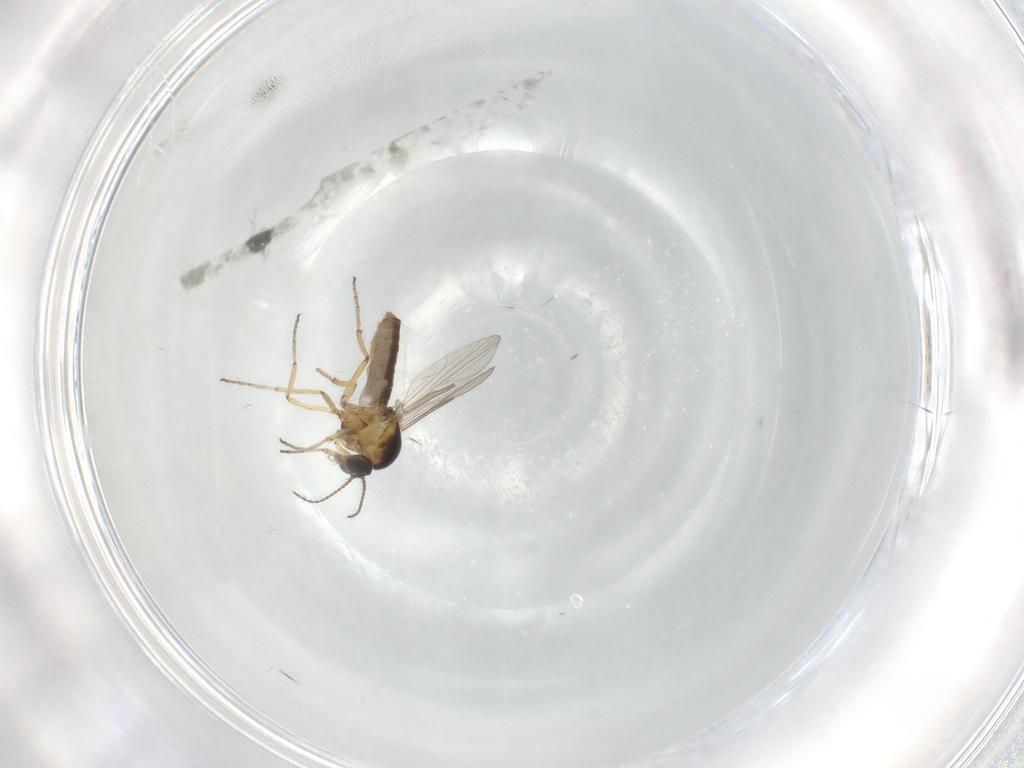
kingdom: Animalia
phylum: Arthropoda
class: Insecta
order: Diptera
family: Ceratopogonidae
